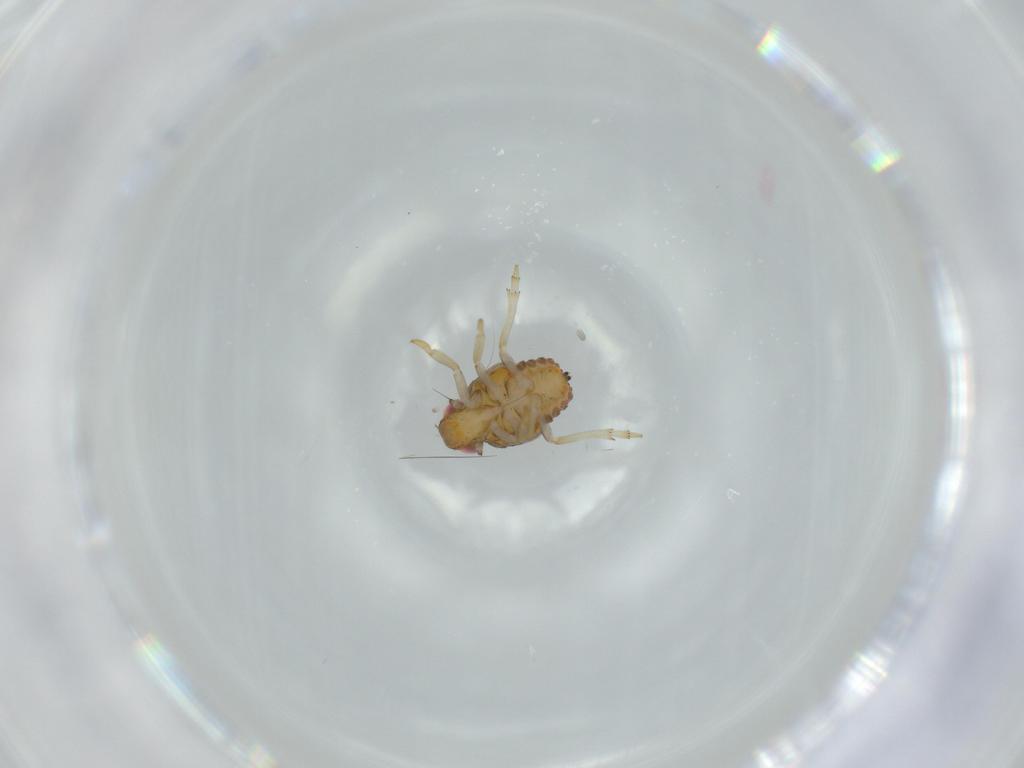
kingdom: Animalia
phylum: Arthropoda
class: Insecta
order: Hemiptera
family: Issidae
